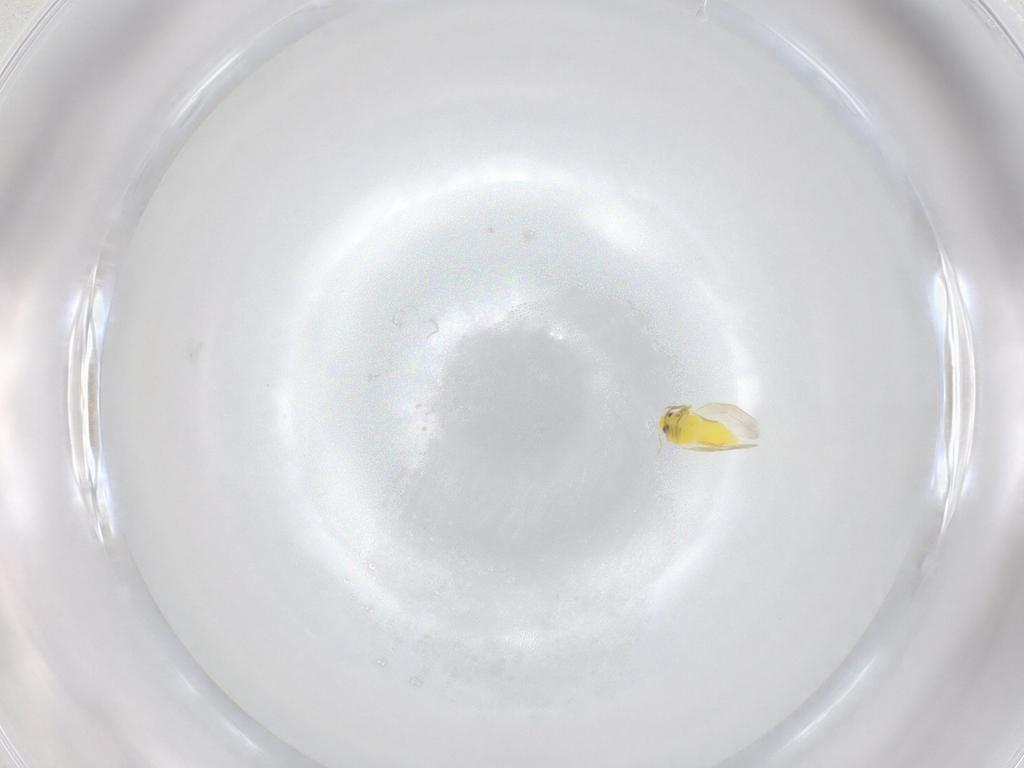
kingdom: Animalia
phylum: Arthropoda
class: Insecta
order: Hemiptera
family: Aleyrodidae
